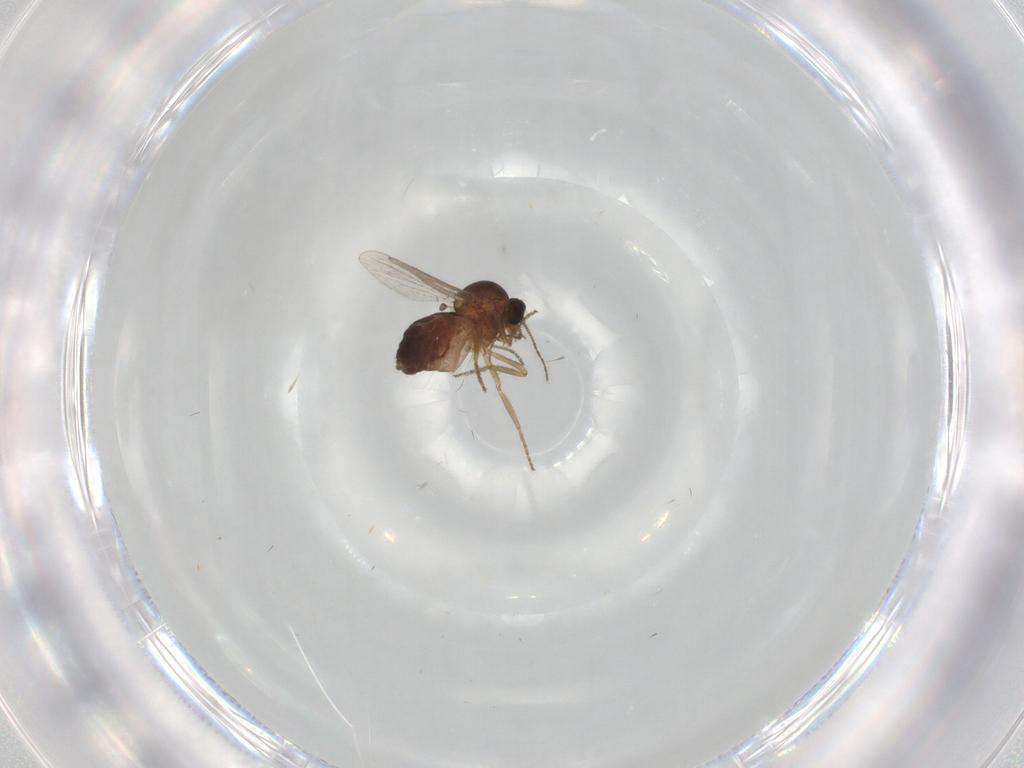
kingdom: Animalia
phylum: Arthropoda
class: Insecta
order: Diptera
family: Ceratopogonidae
